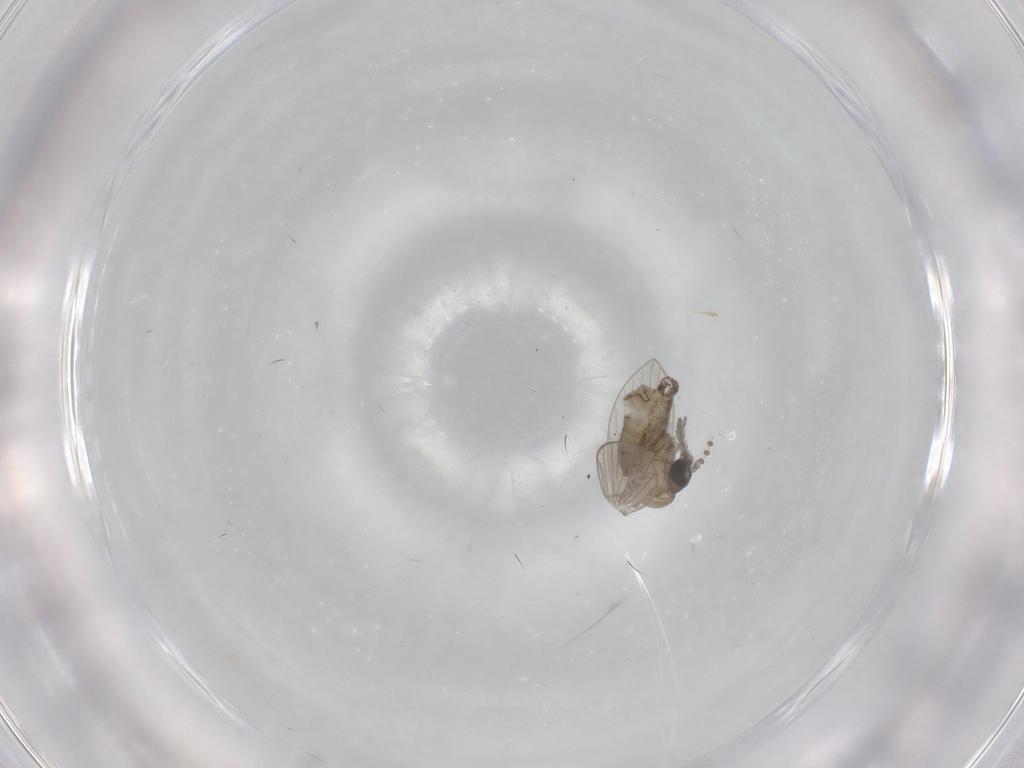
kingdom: Animalia
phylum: Arthropoda
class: Insecta
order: Diptera
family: Psychodidae
